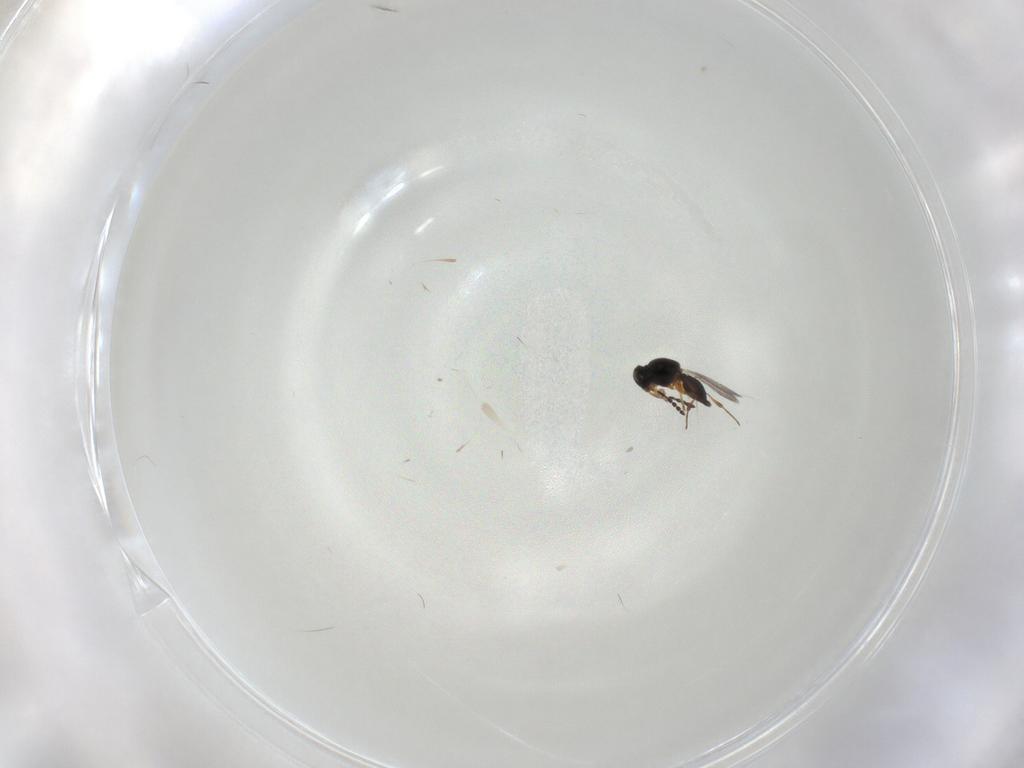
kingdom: Animalia
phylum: Arthropoda
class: Insecta
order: Hymenoptera
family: Platygastridae
